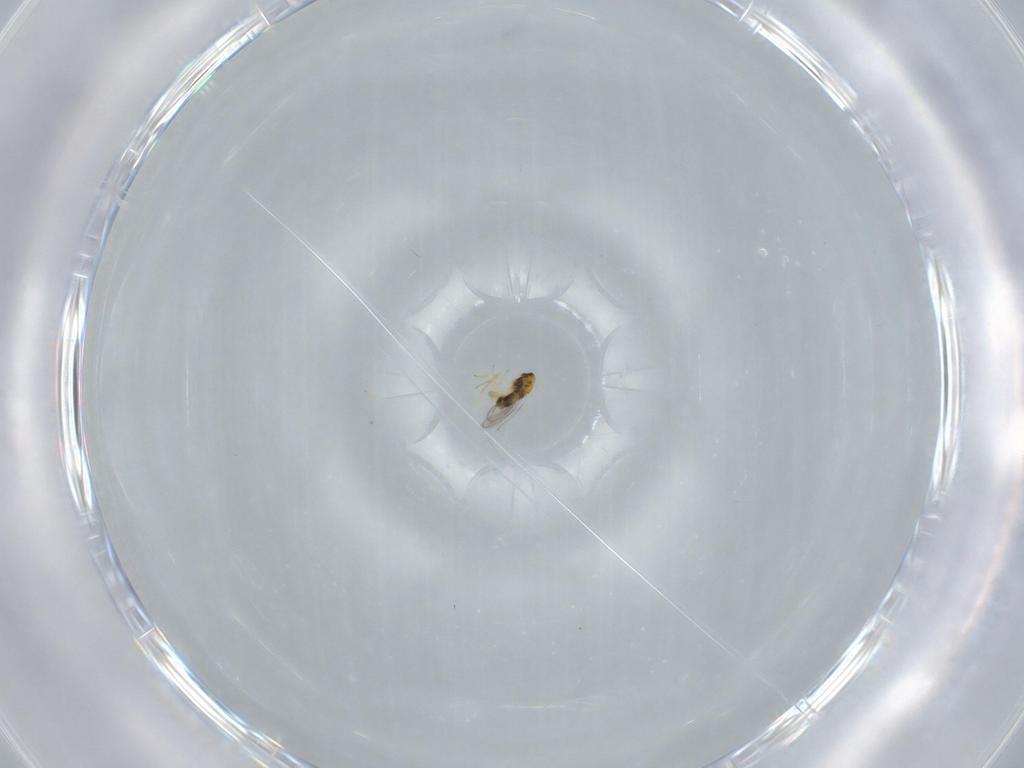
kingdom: Animalia
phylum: Arthropoda
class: Insecta
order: Hymenoptera
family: Aphelinidae
